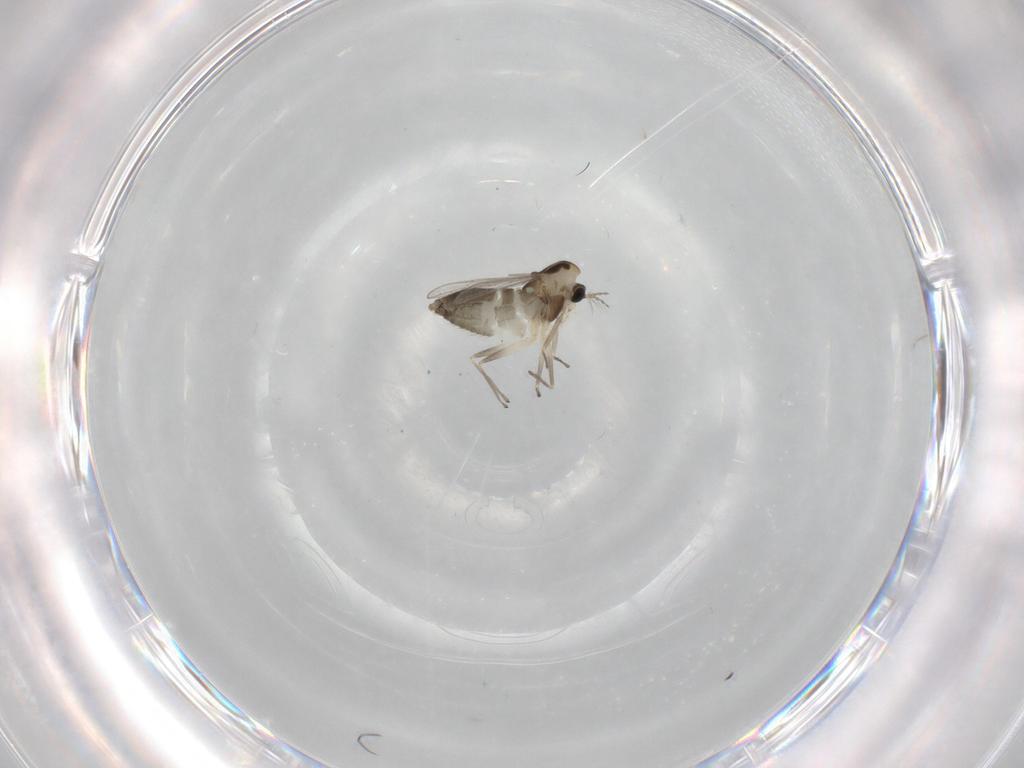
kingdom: Animalia
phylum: Arthropoda
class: Insecta
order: Diptera
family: Chironomidae
